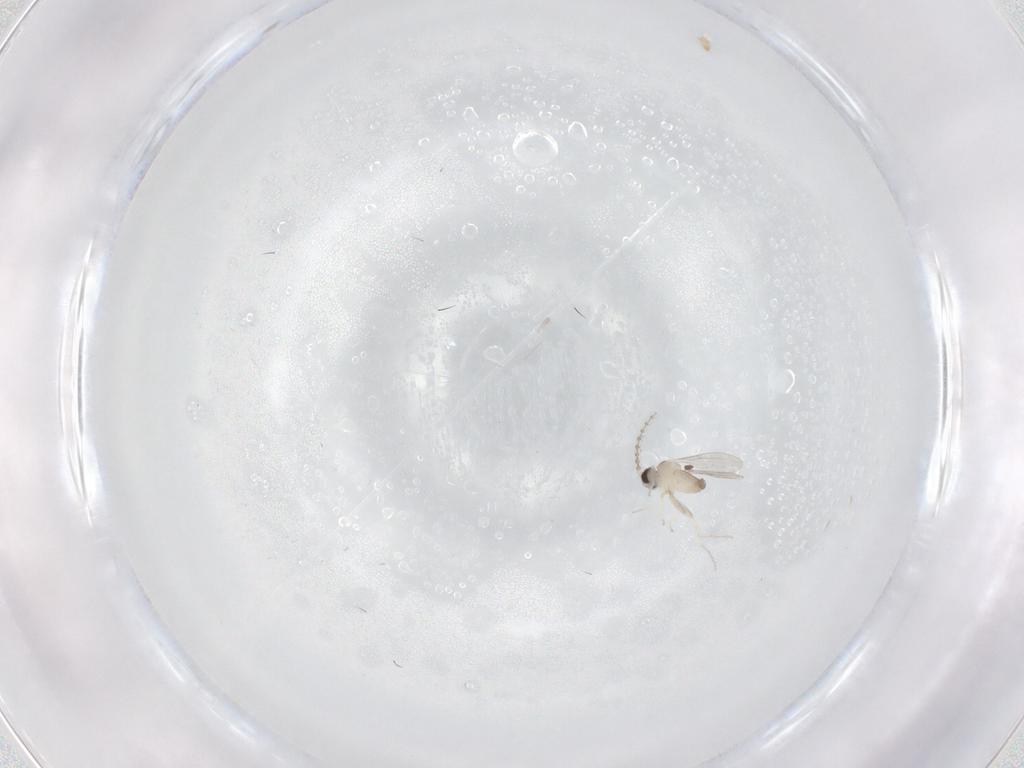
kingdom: Animalia
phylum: Arthropoda
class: Insecta
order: Diptera
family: Cecidomyiidae
